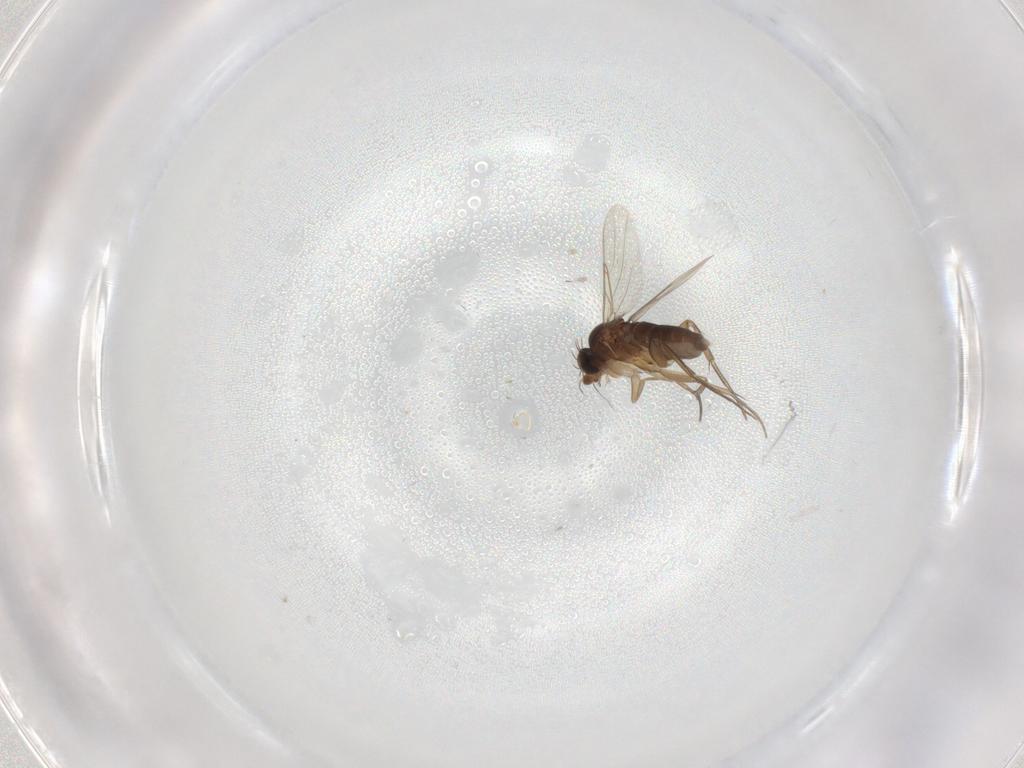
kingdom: Animalia
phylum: Arthropoda
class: Insecta
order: Diptera
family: Phoridae
